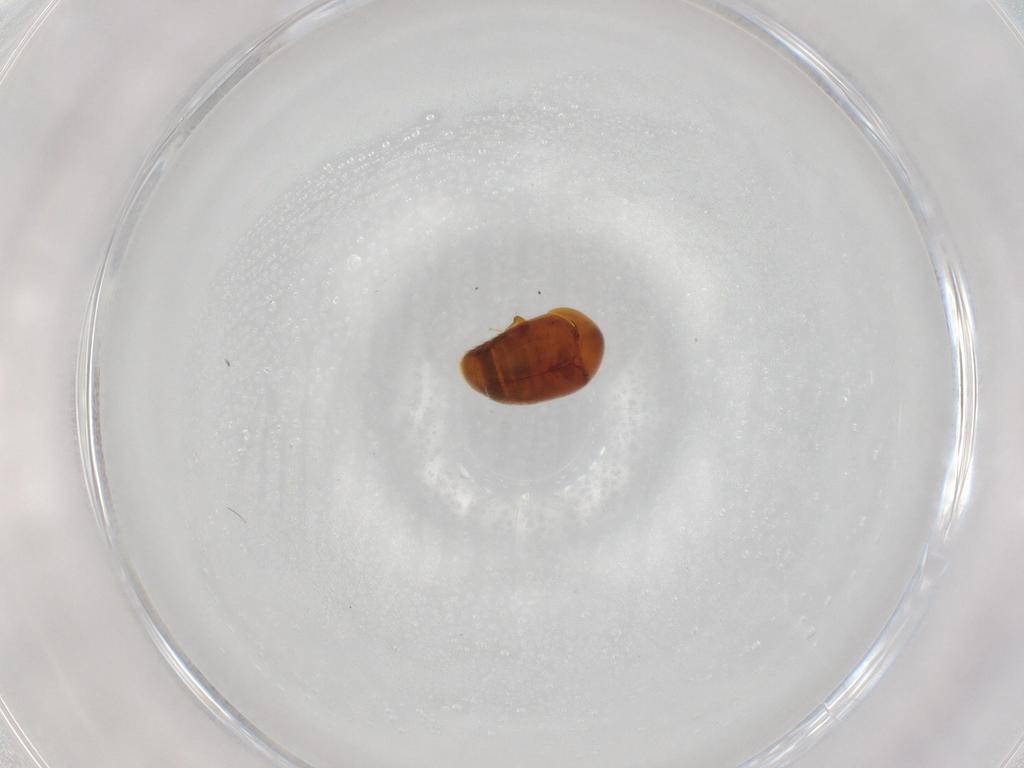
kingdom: Animalia
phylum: Arthropoda
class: Insecta
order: Coleoptera
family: Corylophidae
